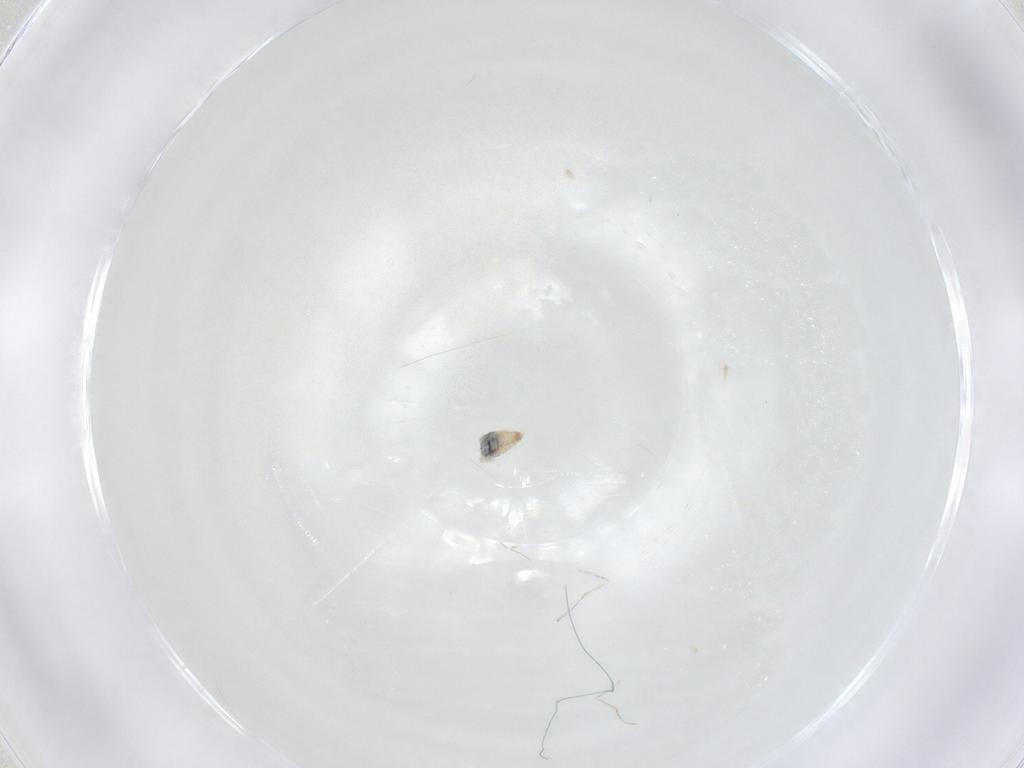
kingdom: Animalia
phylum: Arthropoda
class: Insecta
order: Diptera
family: Cecidomyiidae
